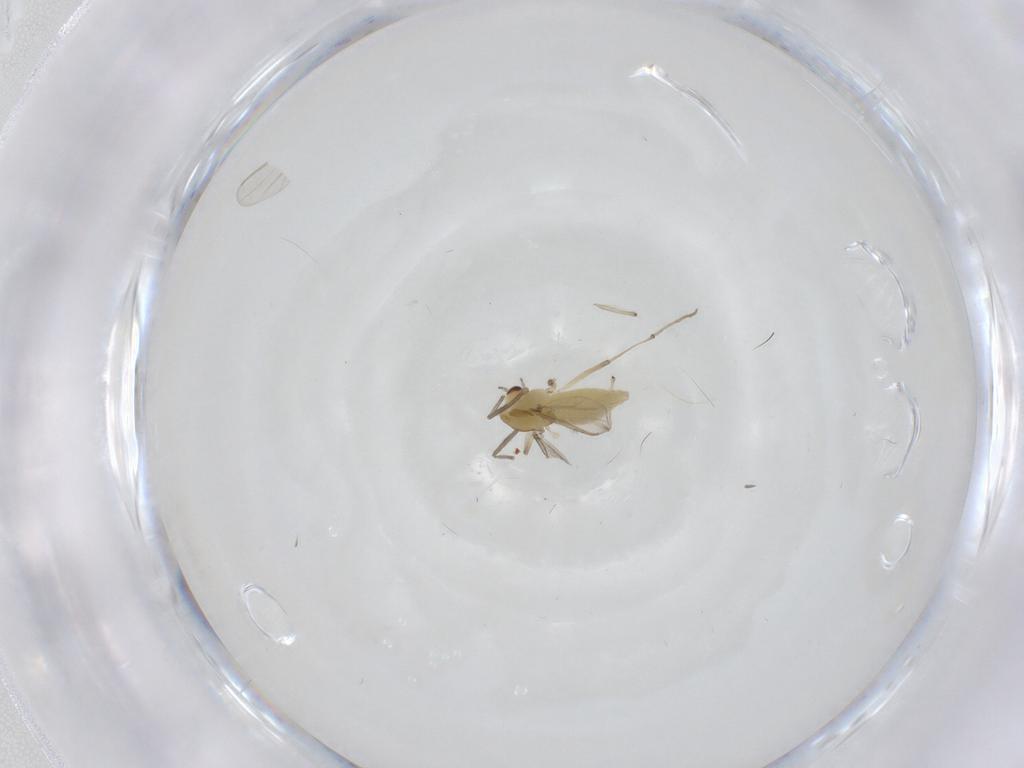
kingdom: Animalia
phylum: Arthropoda
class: Insecta
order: Diptera
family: Chironomidae
